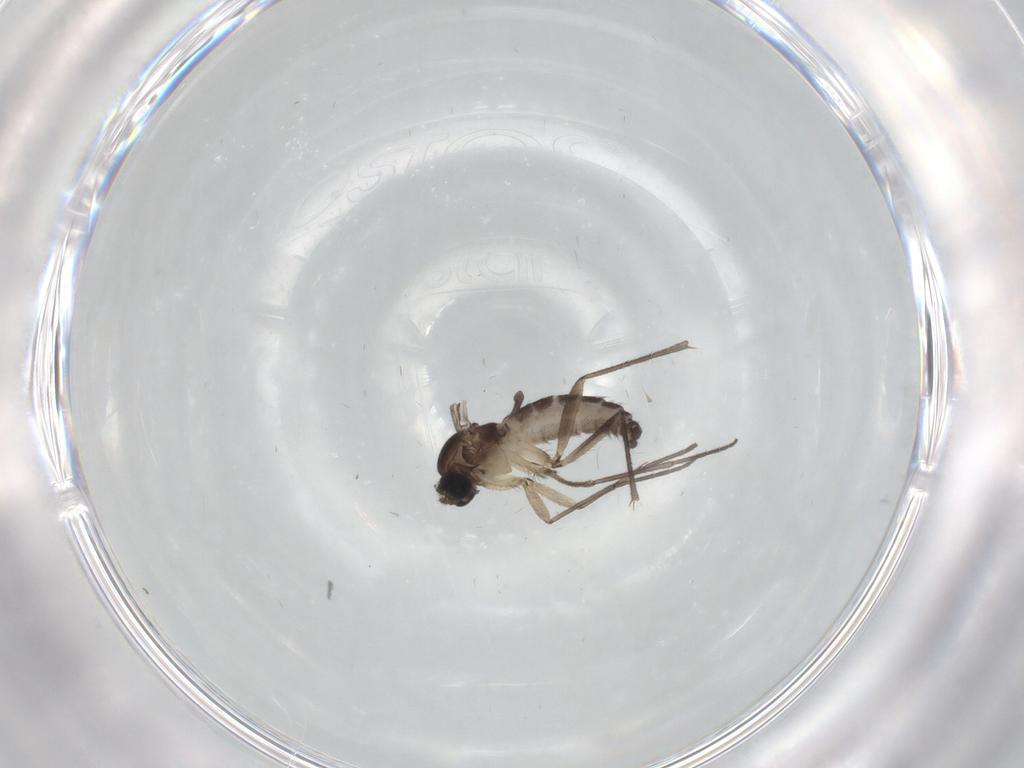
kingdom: Animalia
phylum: Arthropoda
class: Insecta
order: Diptera
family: Sciaridae
